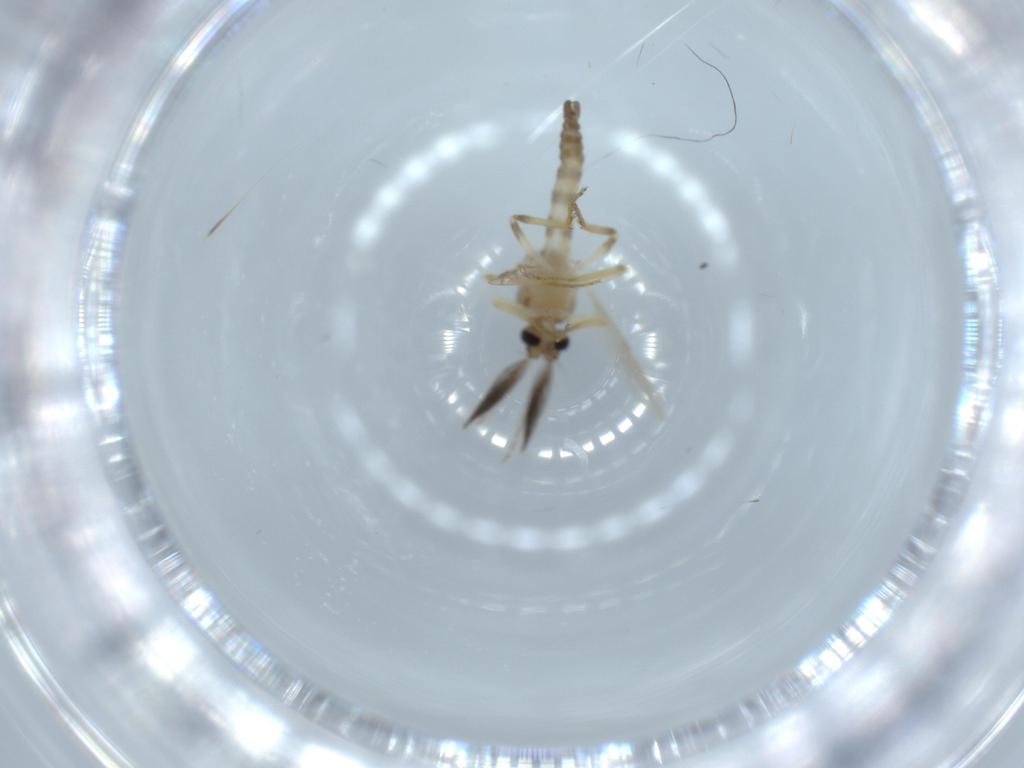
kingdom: Animalia
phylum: Arthropoda
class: Insecta
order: Diptera
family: Ceratopogonidae
